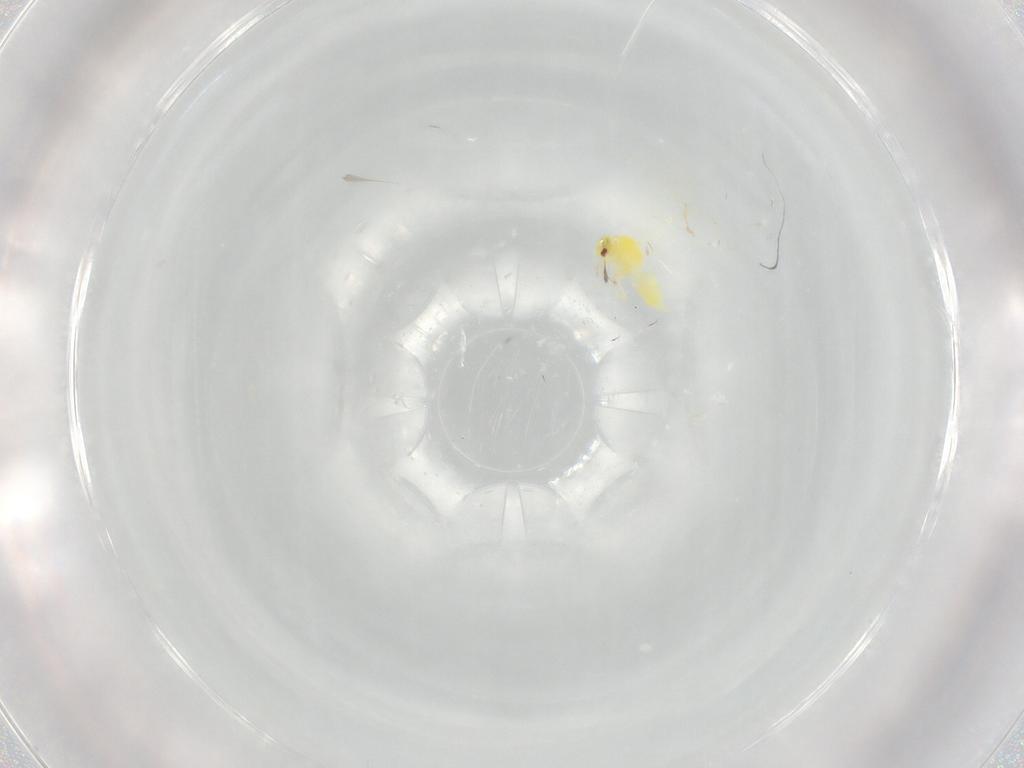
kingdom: Animalia
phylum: Arthropoda
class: Insecta
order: Hemiptera
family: Aleyrodidae
